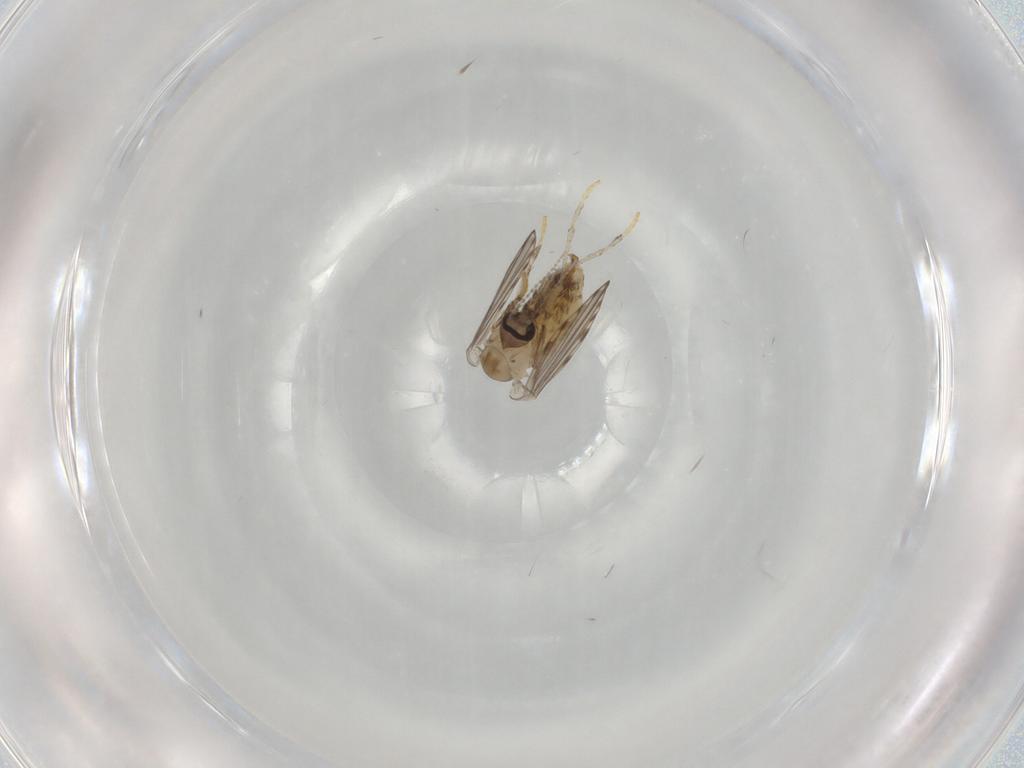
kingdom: Animalia
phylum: Arthropoda
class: Insecta
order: Diptera
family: Psychodidae
